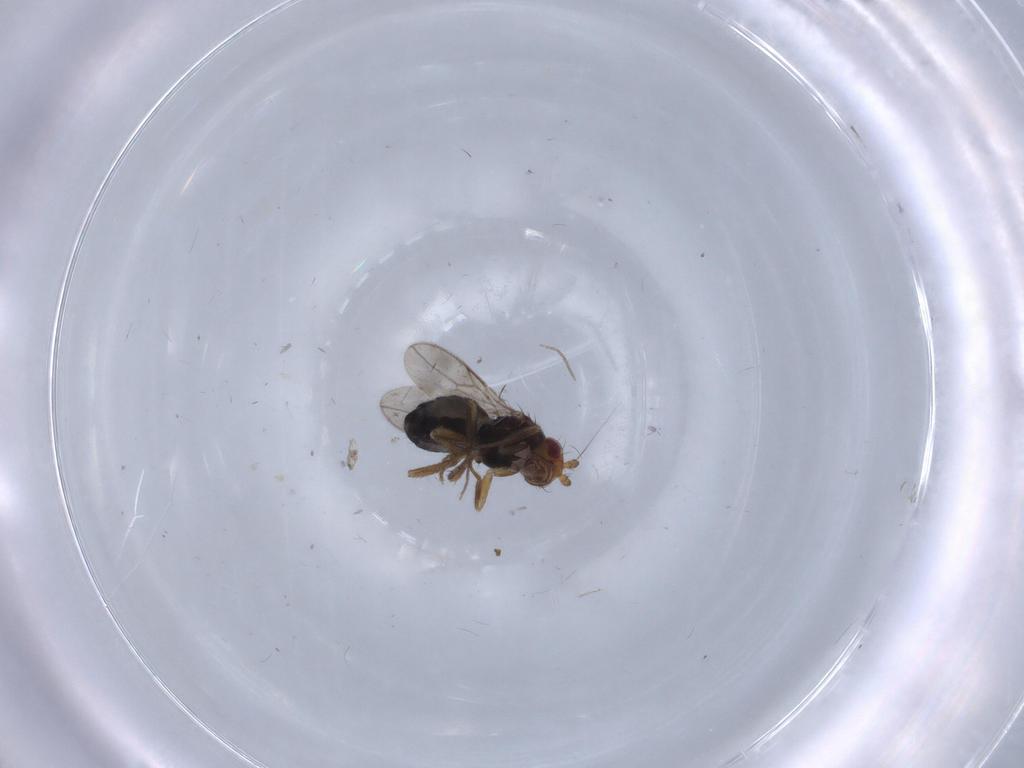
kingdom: Animalia
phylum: Arthropoda
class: Insecta
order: Diptera
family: Sphaeroceridae
